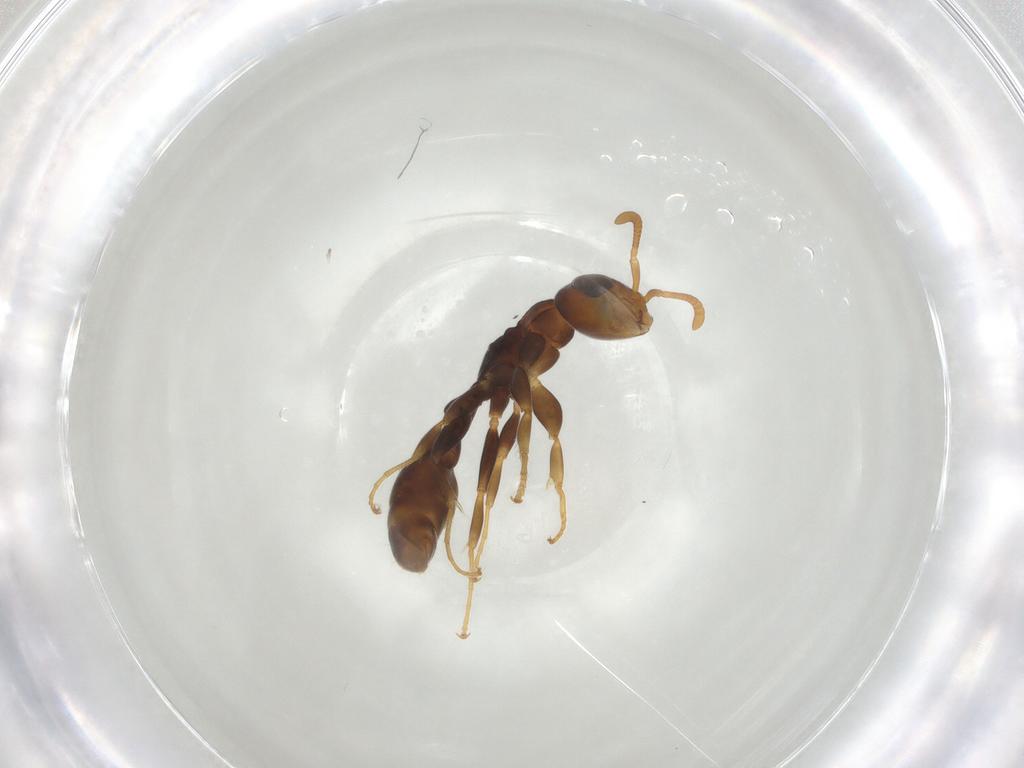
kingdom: Animalia
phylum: Arthropoda
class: Insecta
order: Hymenoptera
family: Formicidae
